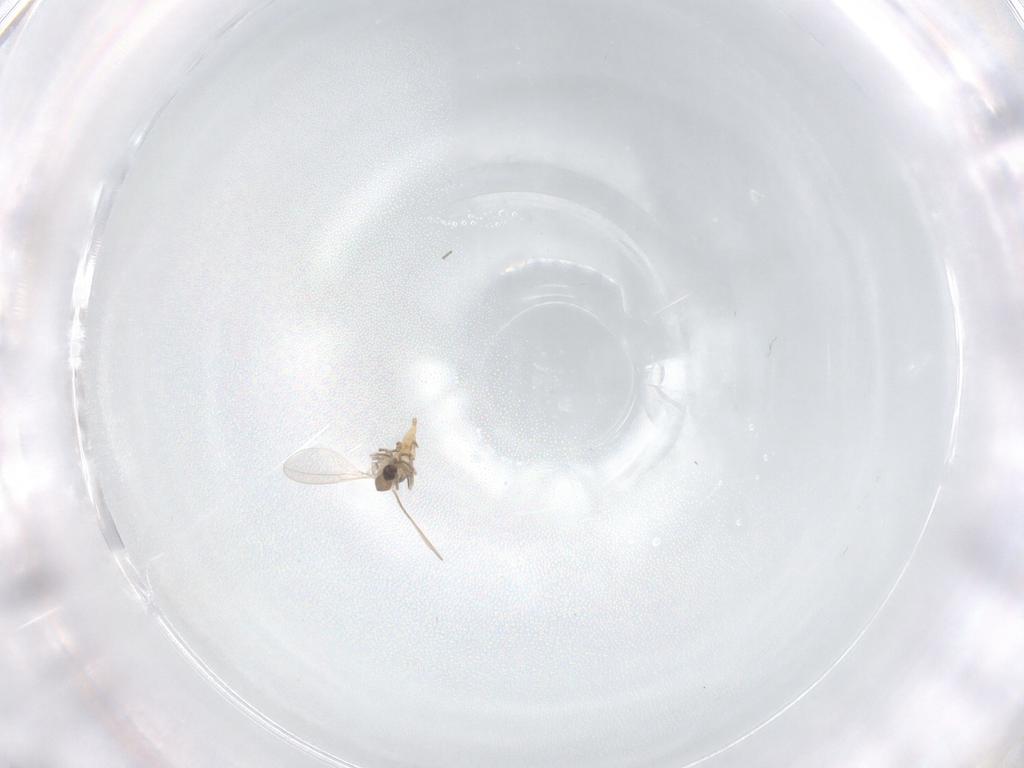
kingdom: Animalia
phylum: Arthropoda
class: Insecta
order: Diptera
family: Cecidomyiidae
